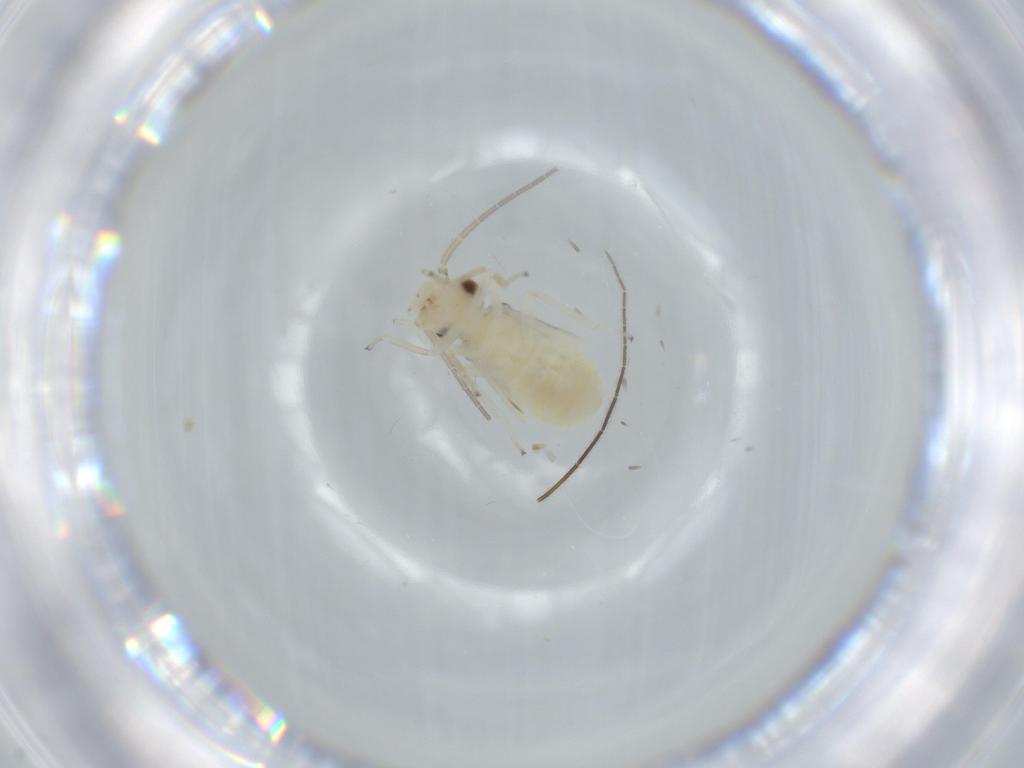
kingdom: Animalia
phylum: Arthropoda
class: Insecta
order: Psocodea
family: Caeciliusidae
